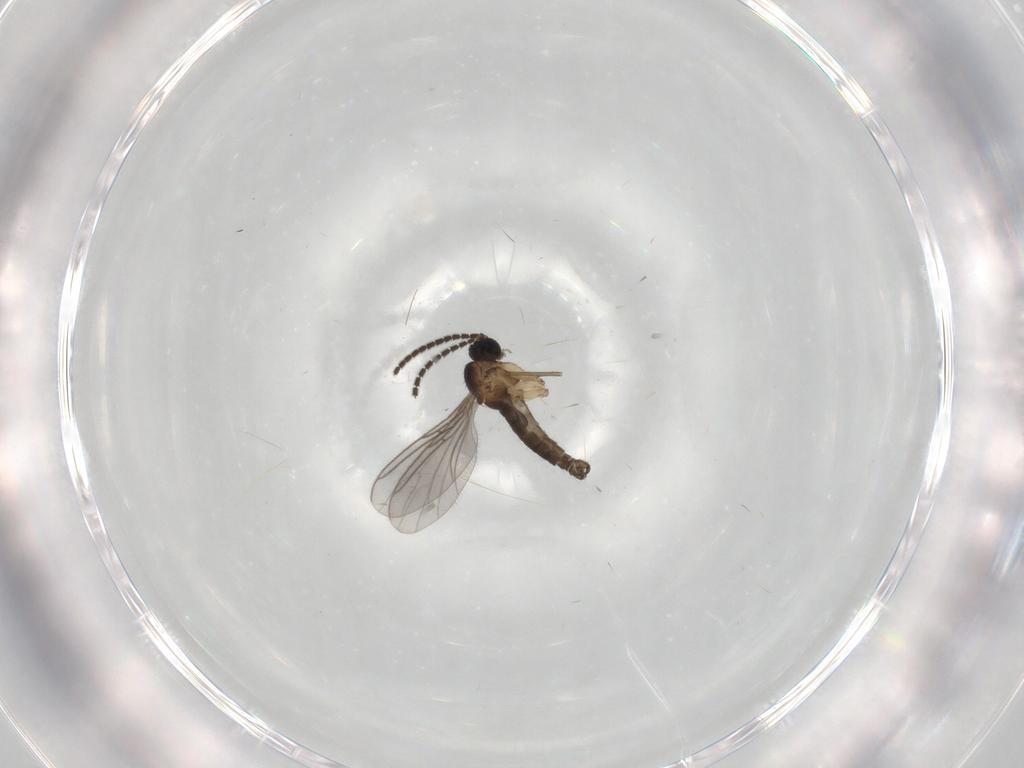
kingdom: Animalia
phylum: Arthropoda
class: Insecta
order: Diptera
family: Sciaridae
